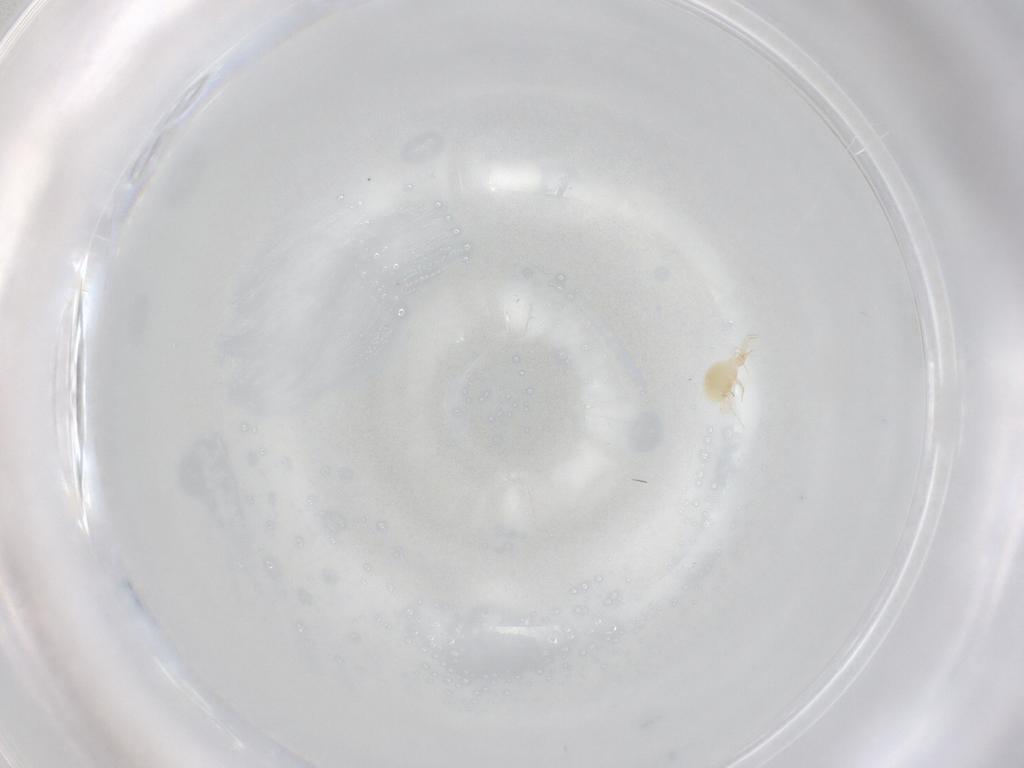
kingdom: Animalia
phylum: Arthropoda
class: Arachnida
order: Trombidiformes
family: Cunaxidae
